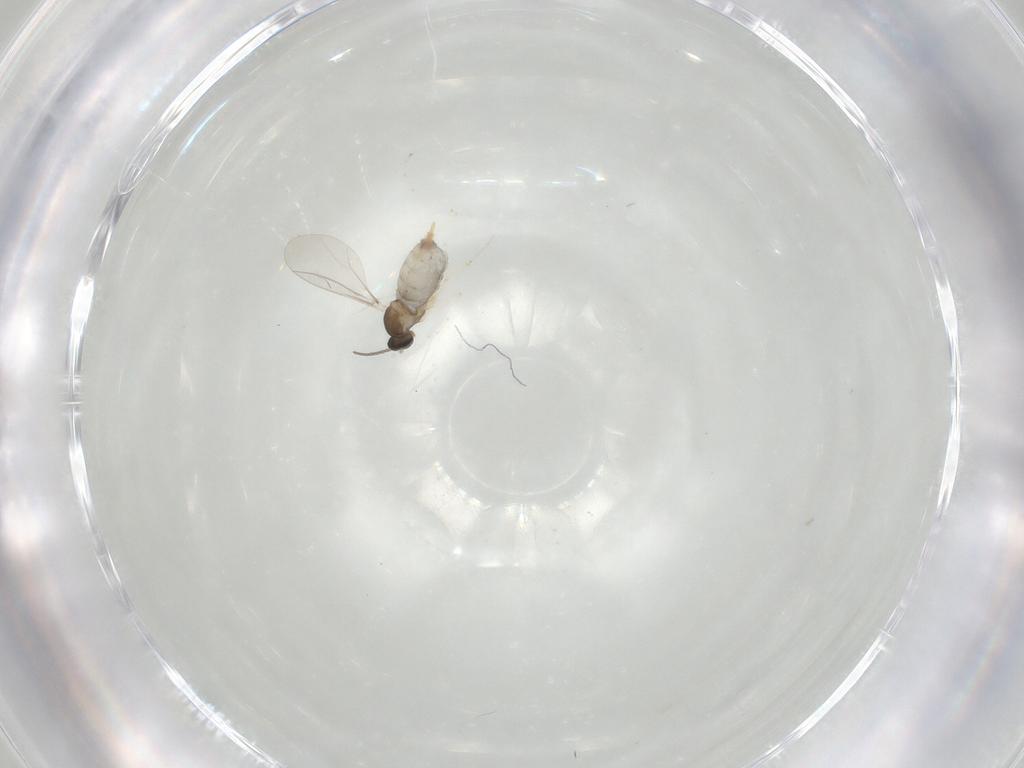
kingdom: Animalia
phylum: Arthropoda
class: Insecta
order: Diptera
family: Cecidomyiidae
